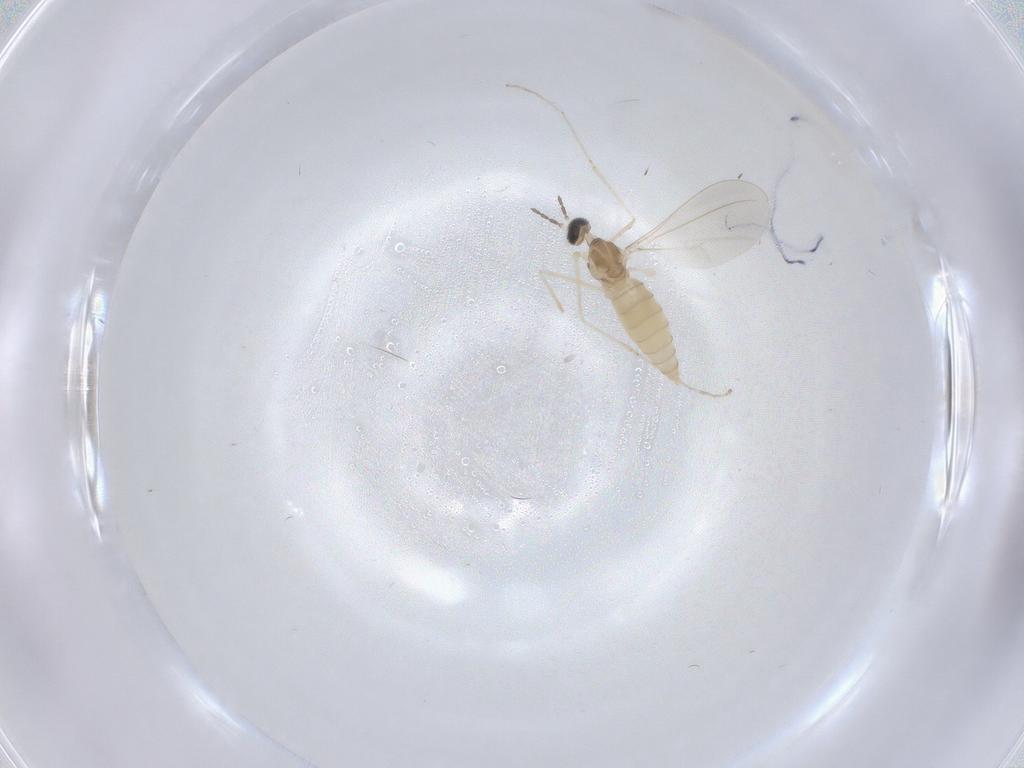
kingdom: Animalia
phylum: Arthropoda
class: Insecta
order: Diptera
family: Cecidomyiidae
